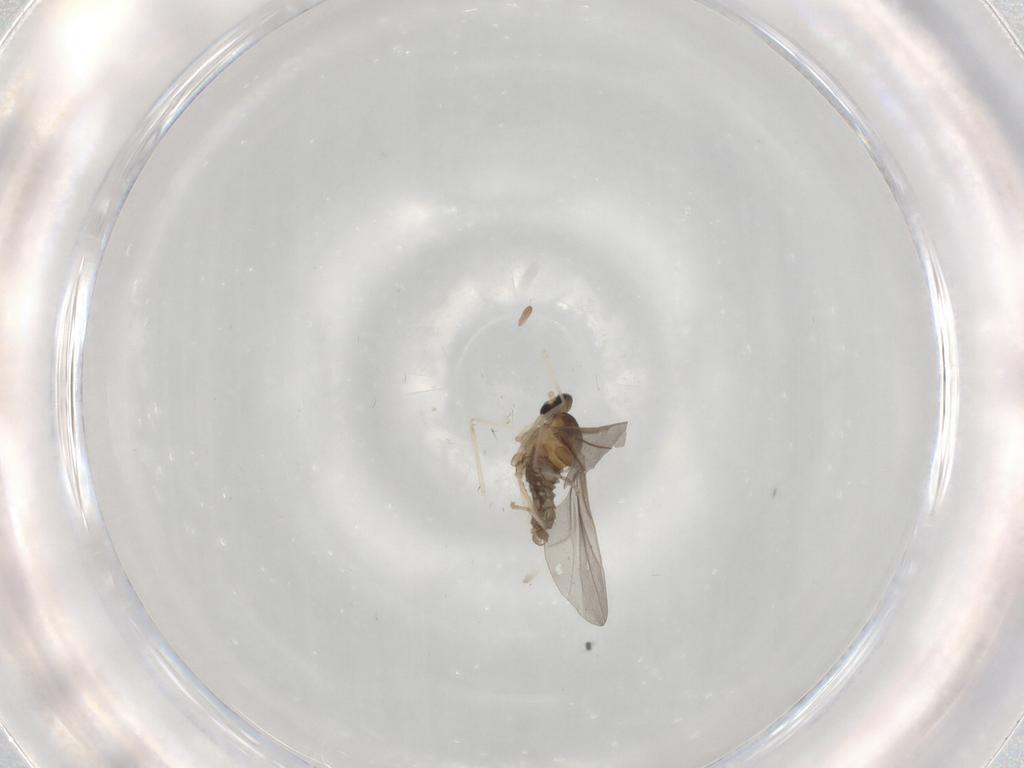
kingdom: Animalia
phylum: Arthropoda
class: Insecta
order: Diptera
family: Cecidomyiidae
